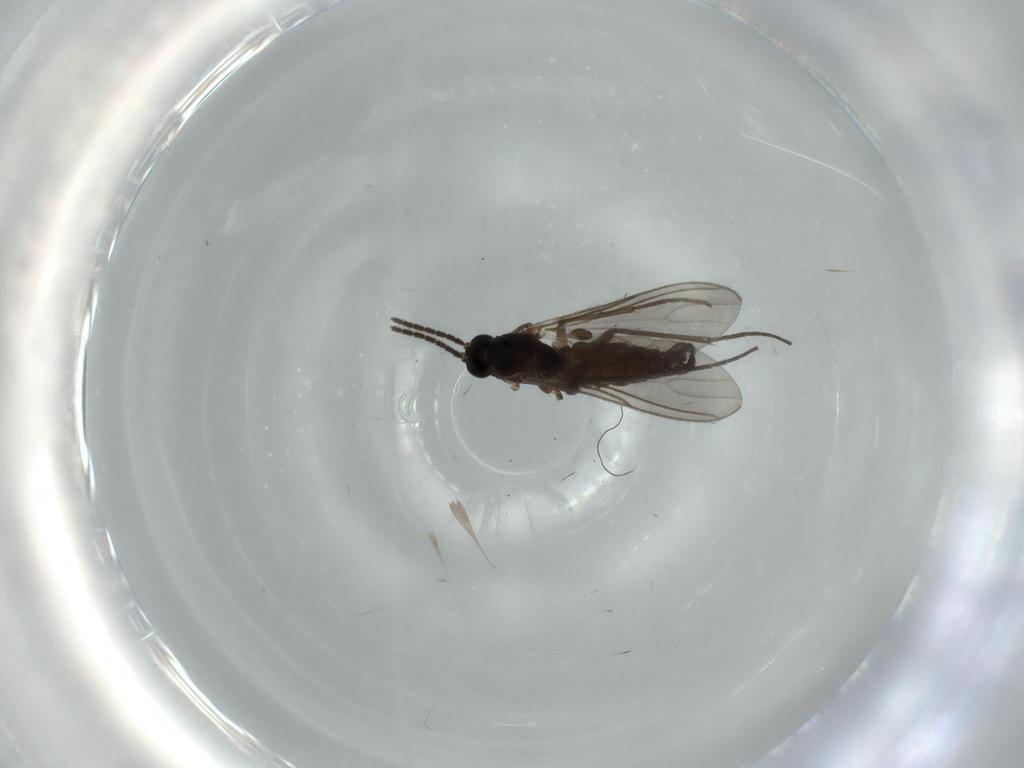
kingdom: Animalia
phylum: Arthropoda
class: Insecta
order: Diptera
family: Sciaridae
